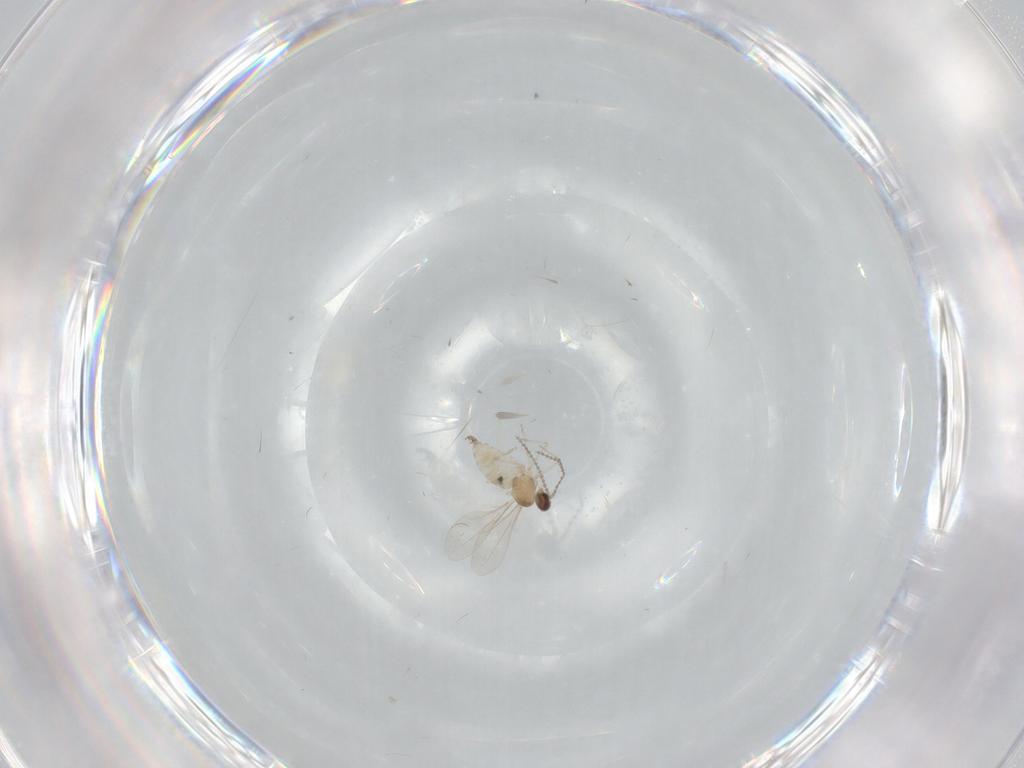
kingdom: Animalia
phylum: Arthropoda
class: Insecta
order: Diptera
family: Cecidomyiidae
